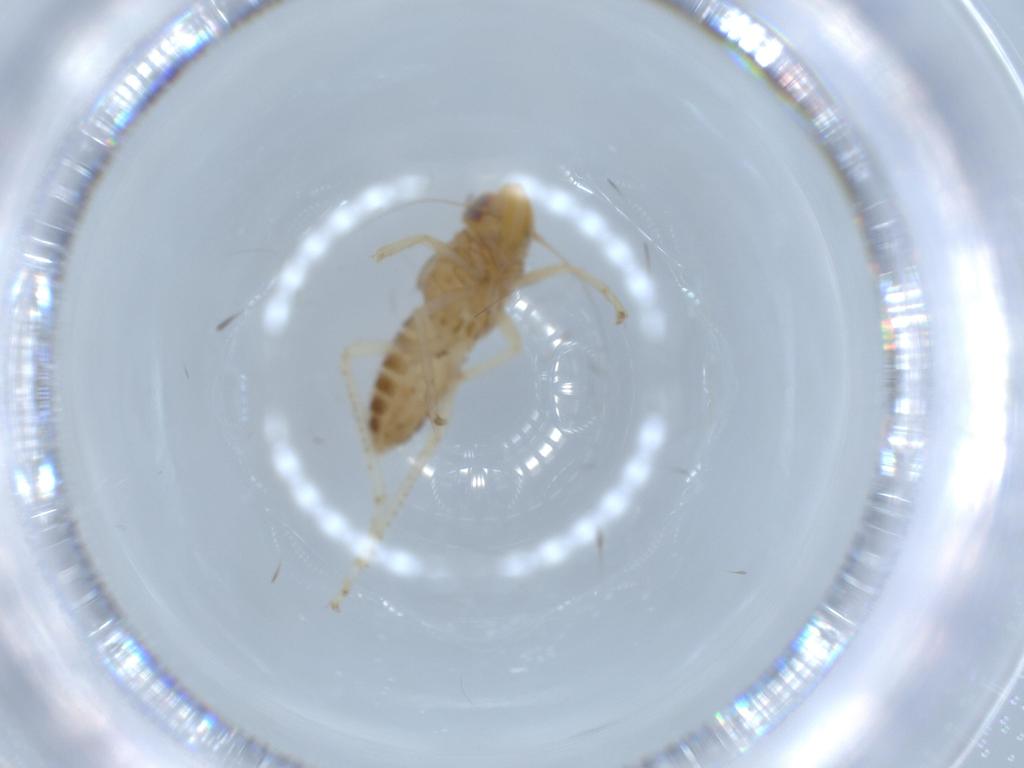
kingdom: Animalia
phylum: Arthropoda
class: Insecta
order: Hemiptera
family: Cicadellidae
